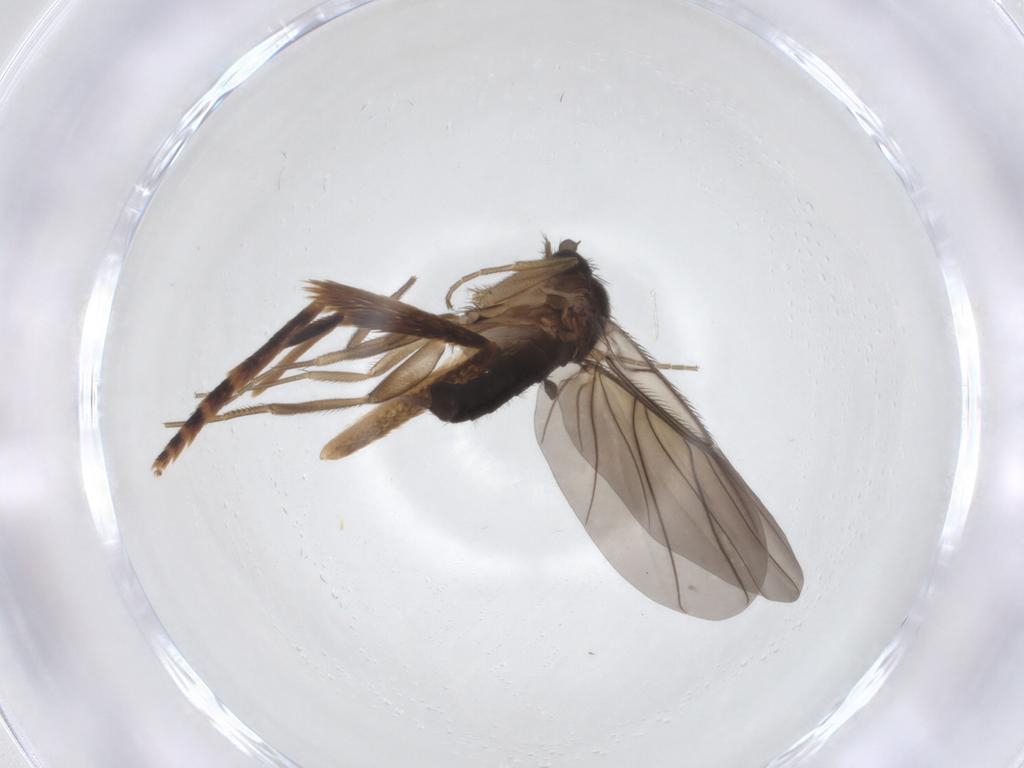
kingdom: Animalia
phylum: Arthropoda
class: Insecta
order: Diptera
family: Phoridae
